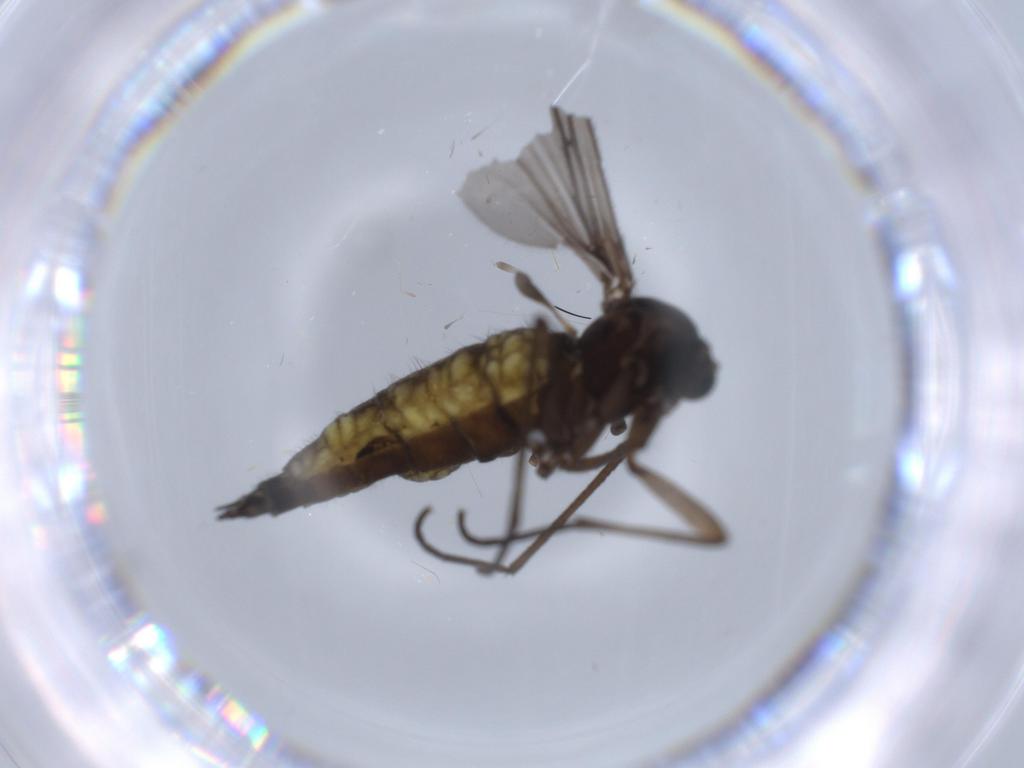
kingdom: Animalia
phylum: Arthropoda
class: Insecta
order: Diptera
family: Sciaridae
